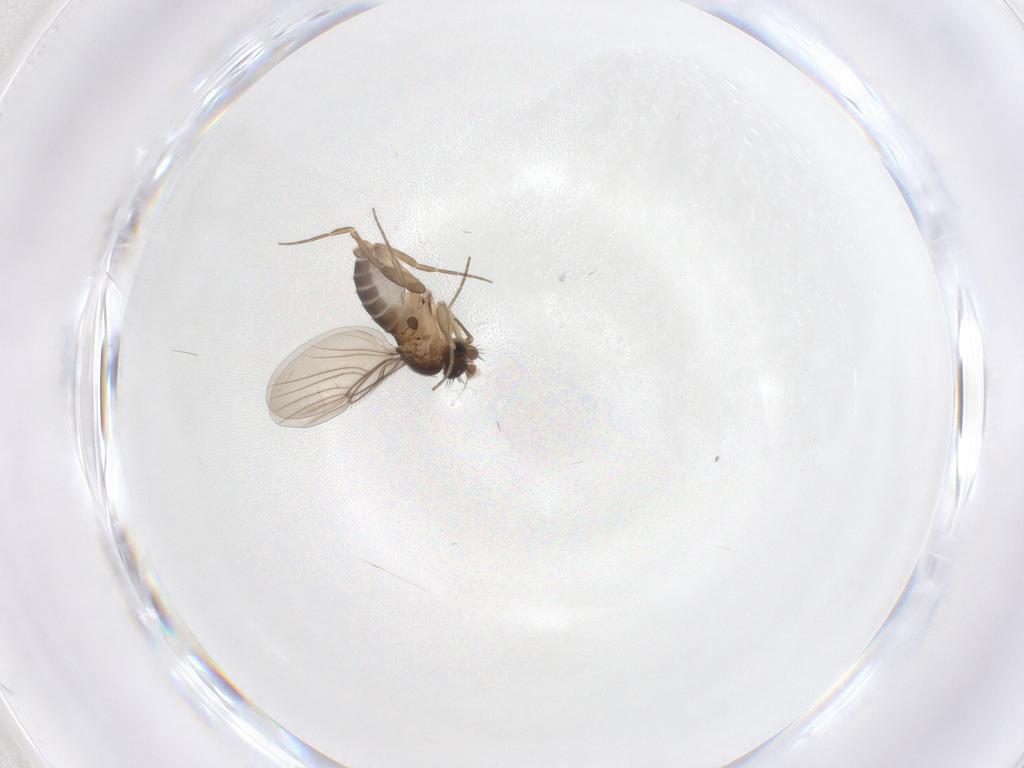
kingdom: Animalia
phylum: Arthropoda
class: Insecta
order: Diptera
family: Phoridae
